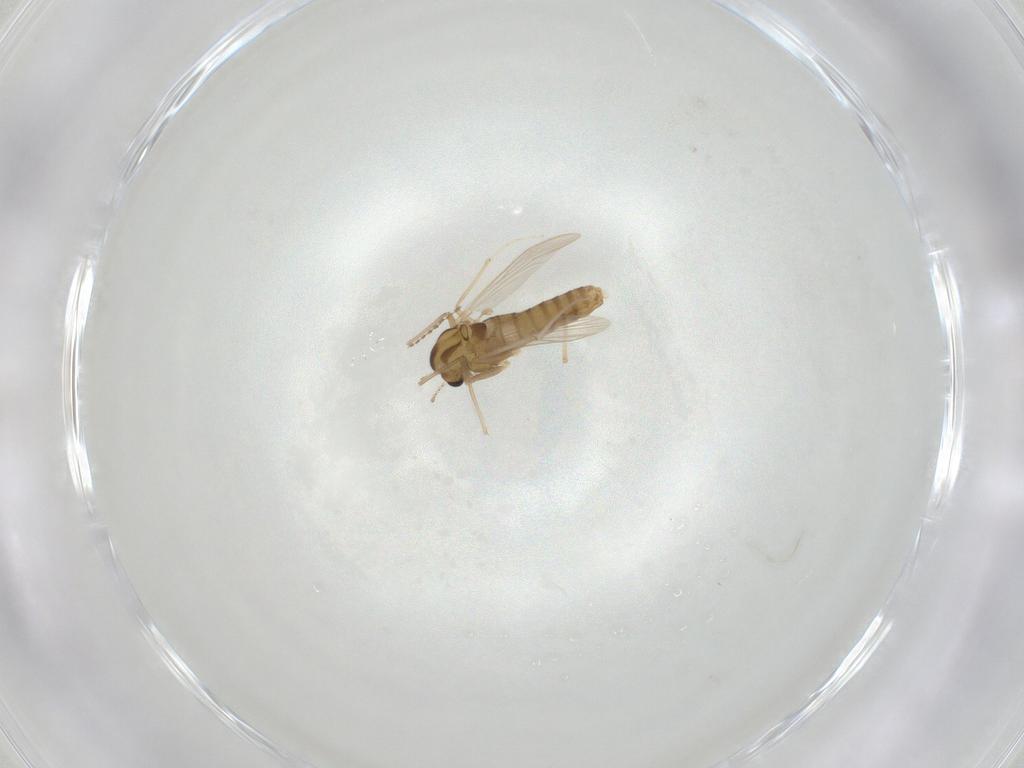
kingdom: Animalia
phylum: Arthropoda
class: Insecta
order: Diptera
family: Chironomidae
